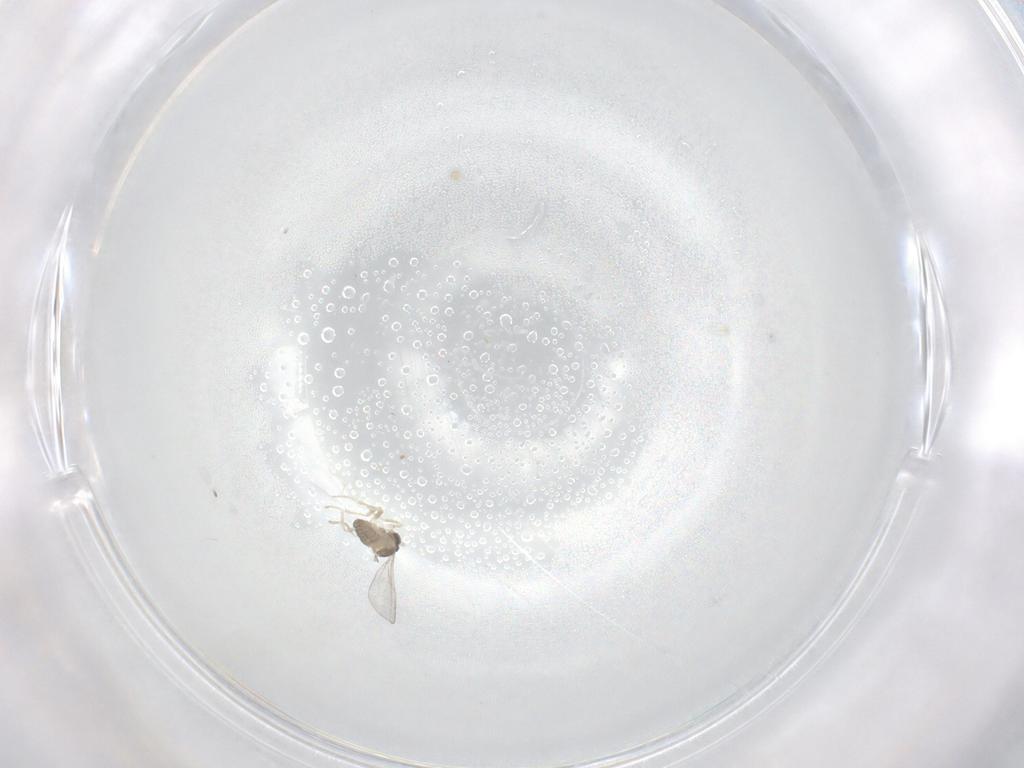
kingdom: Animalia
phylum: Arthropoda
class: Insecta
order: Diptera
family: Cecidomyiidae
